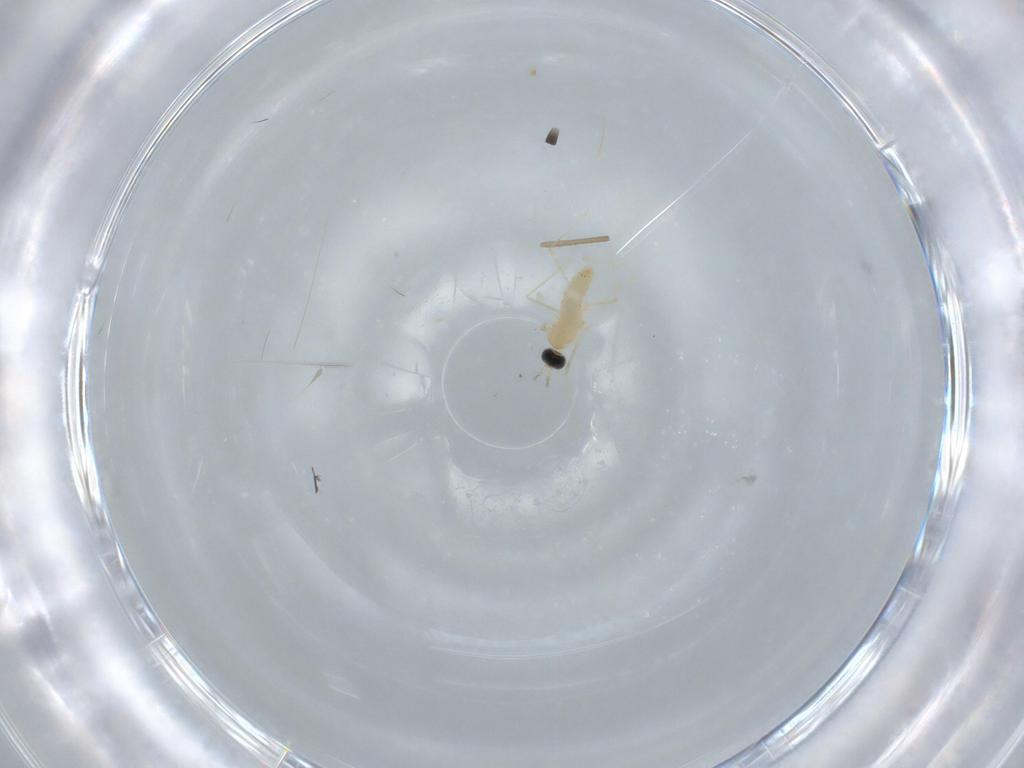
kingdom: Animalia
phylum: Arthropoda
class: Insecta
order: Diptera
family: Cecidomyiidae
